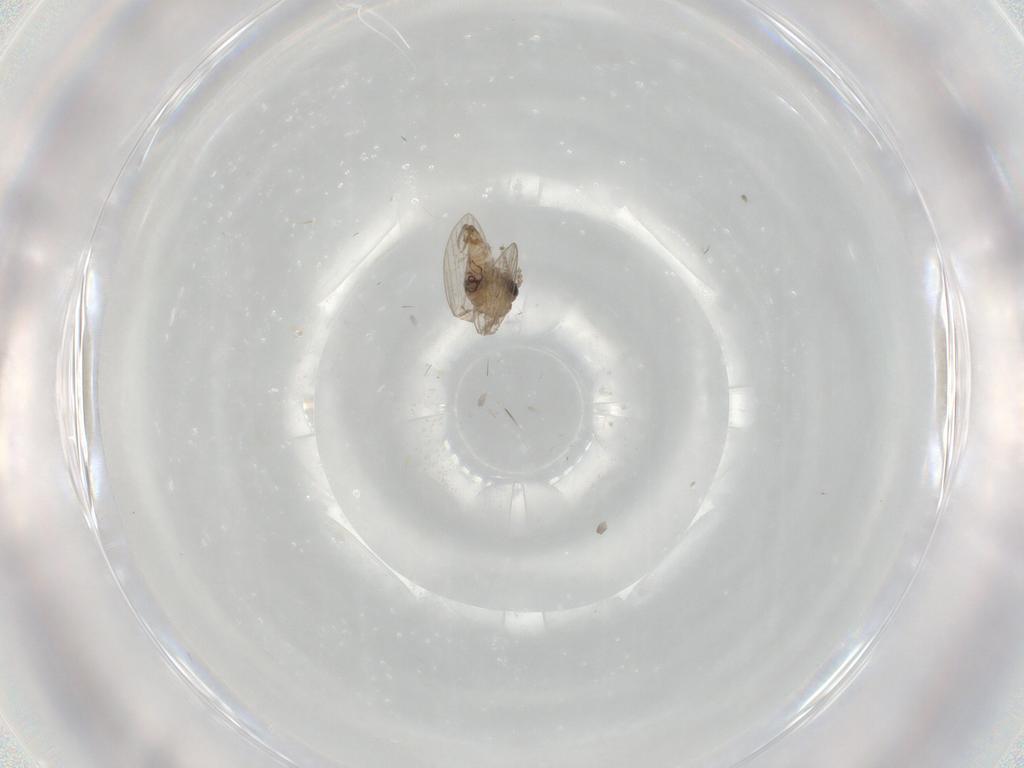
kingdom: Animalia
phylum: Arthropoda
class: Insecta
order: Diptera
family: Psychodidae
